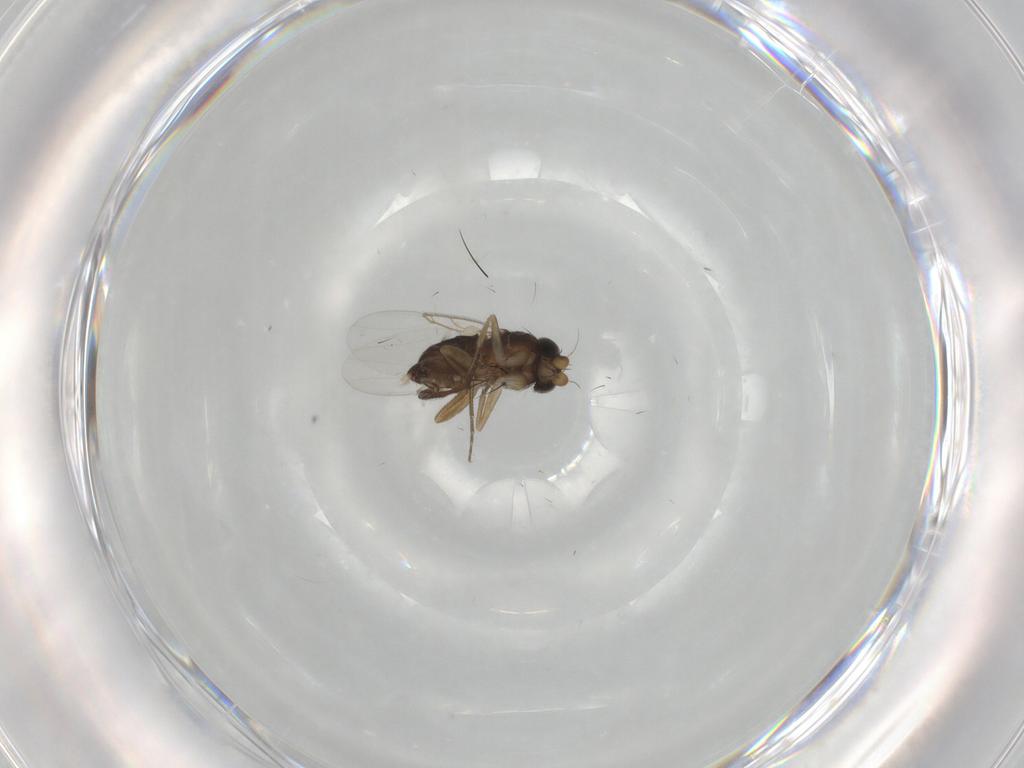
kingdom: Animalia
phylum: Arthropoda
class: Insecta
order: Diptera
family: Phoridae
